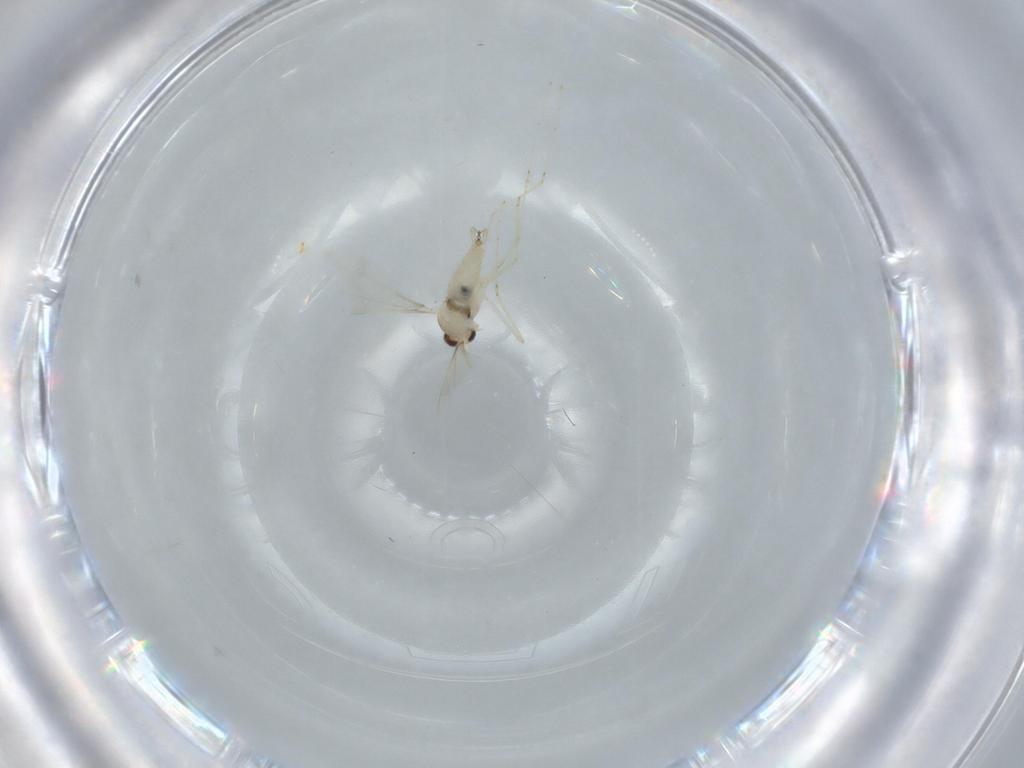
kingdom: Animalia
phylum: Arthropoda
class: Insecta
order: Diptera
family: Cecidomyiidae
